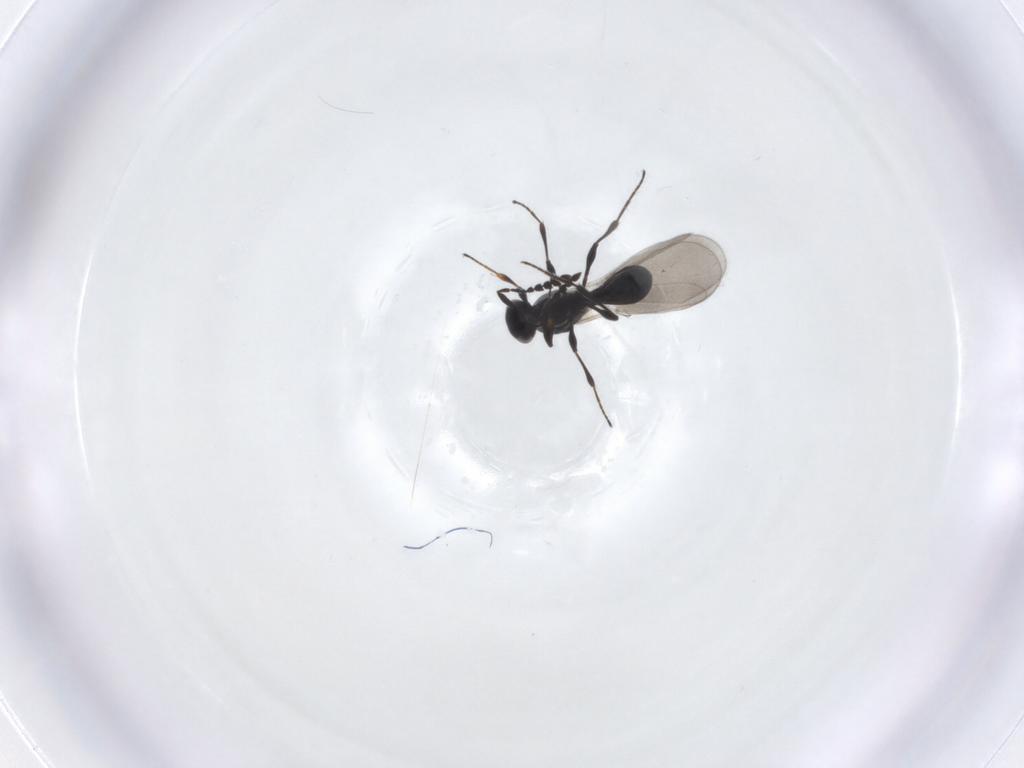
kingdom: Animalia
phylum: Arthropoda
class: Insecta
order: Hymenoptera
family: Platygastridae
